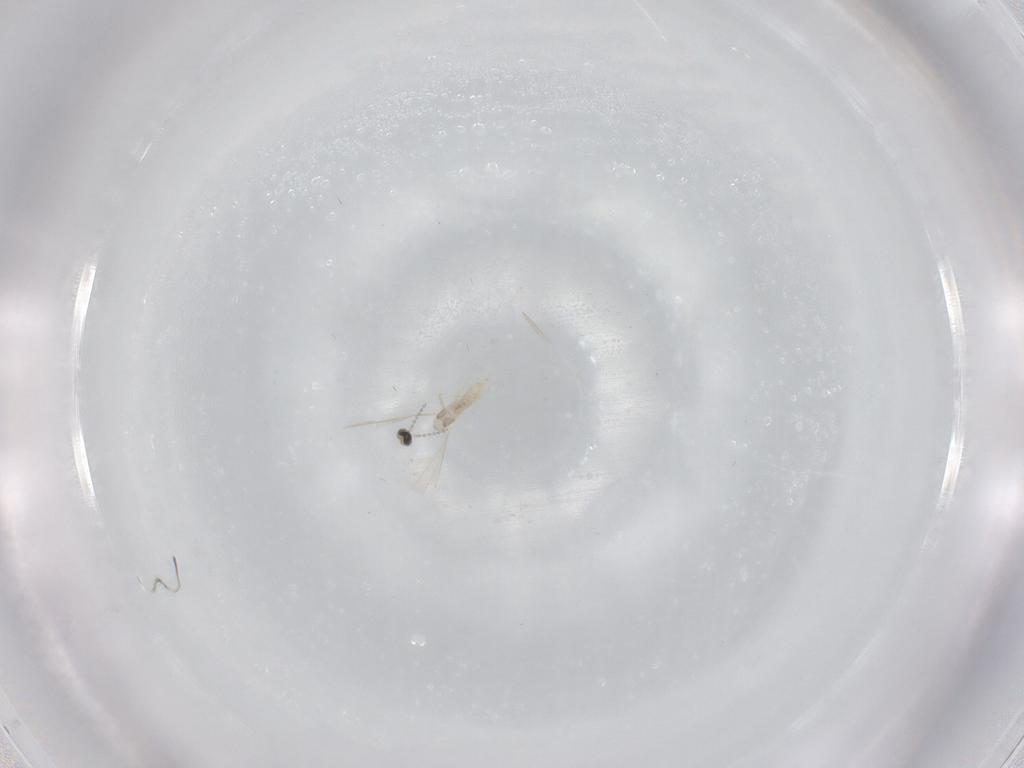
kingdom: Animalia
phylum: Arthropoda
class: Insecta
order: Diptera
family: Cecidomyiidae
